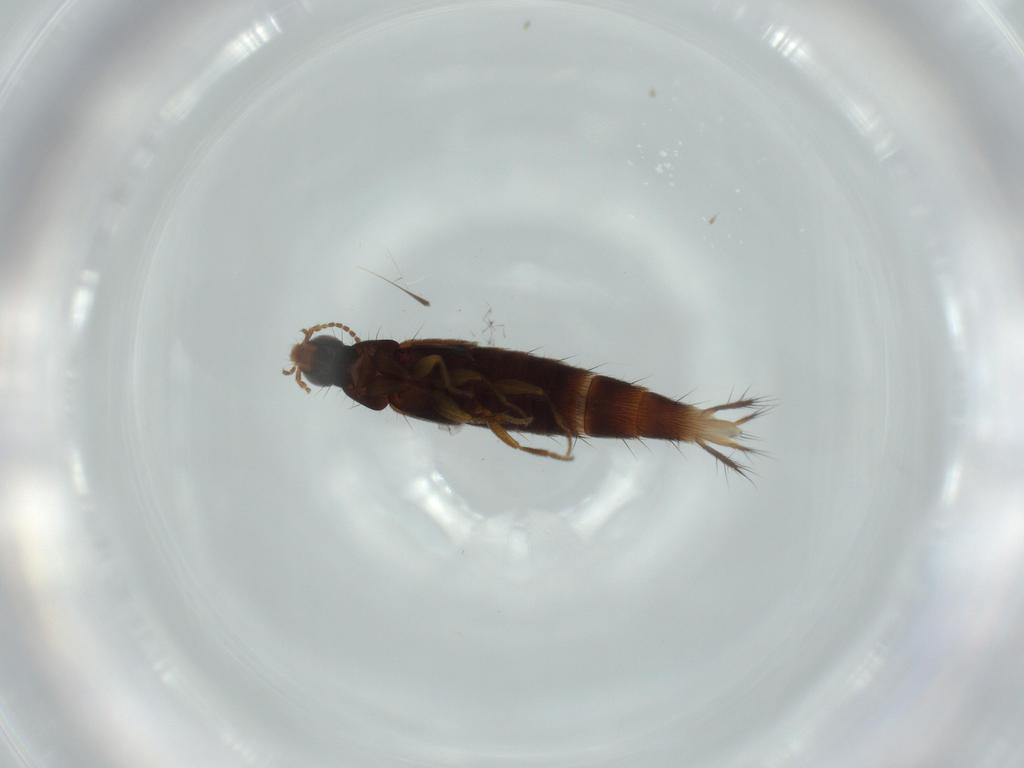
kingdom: Animalia
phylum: Arthropoda
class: Insecta
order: Coleoptera
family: Staphylinidae
